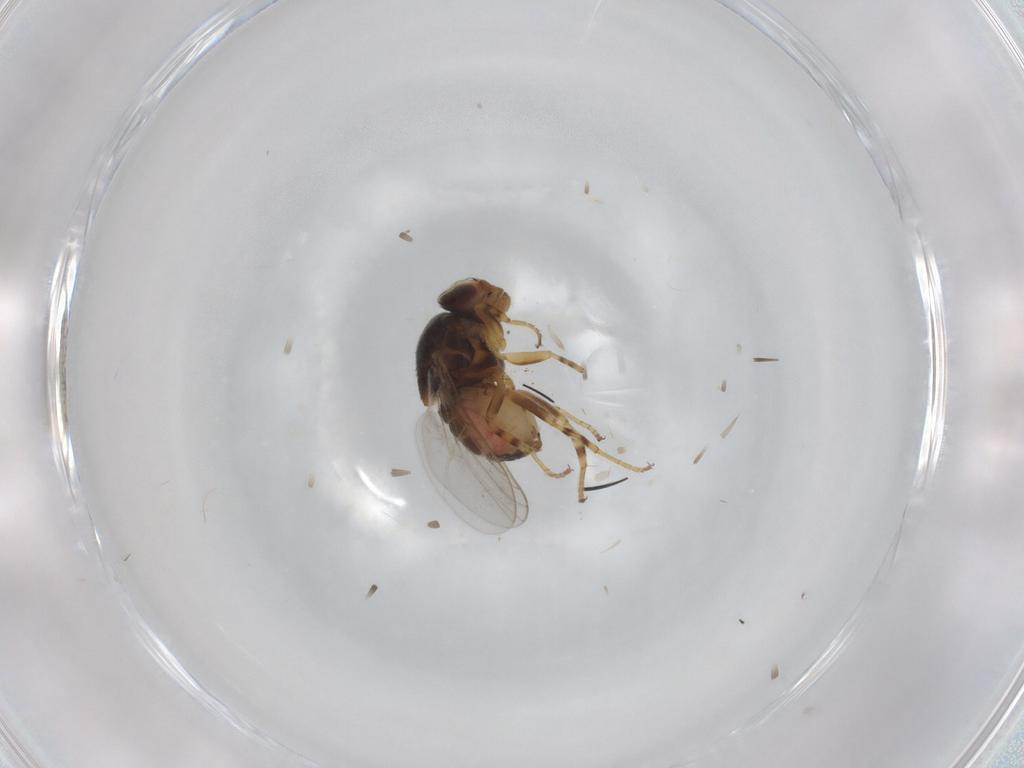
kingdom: Animalia
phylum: Arthropoda
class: Insecta
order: Diptera
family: Chloropidae
